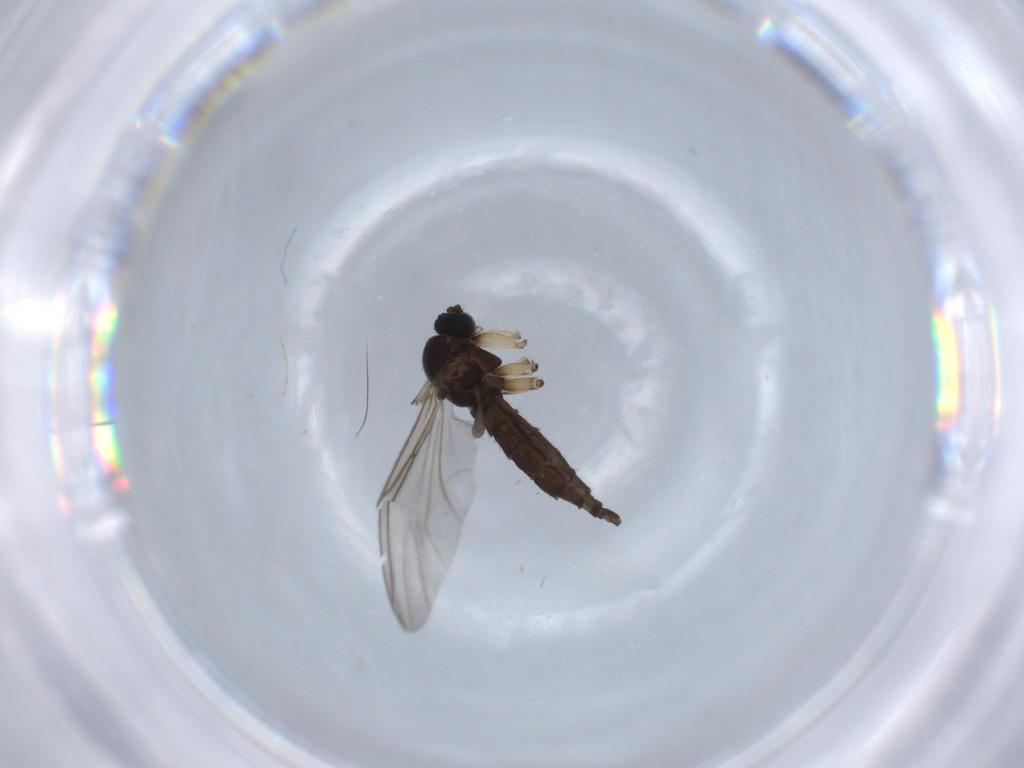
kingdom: Animalia
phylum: Arthropoda
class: Insecta
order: Diptera
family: Sciaridae
